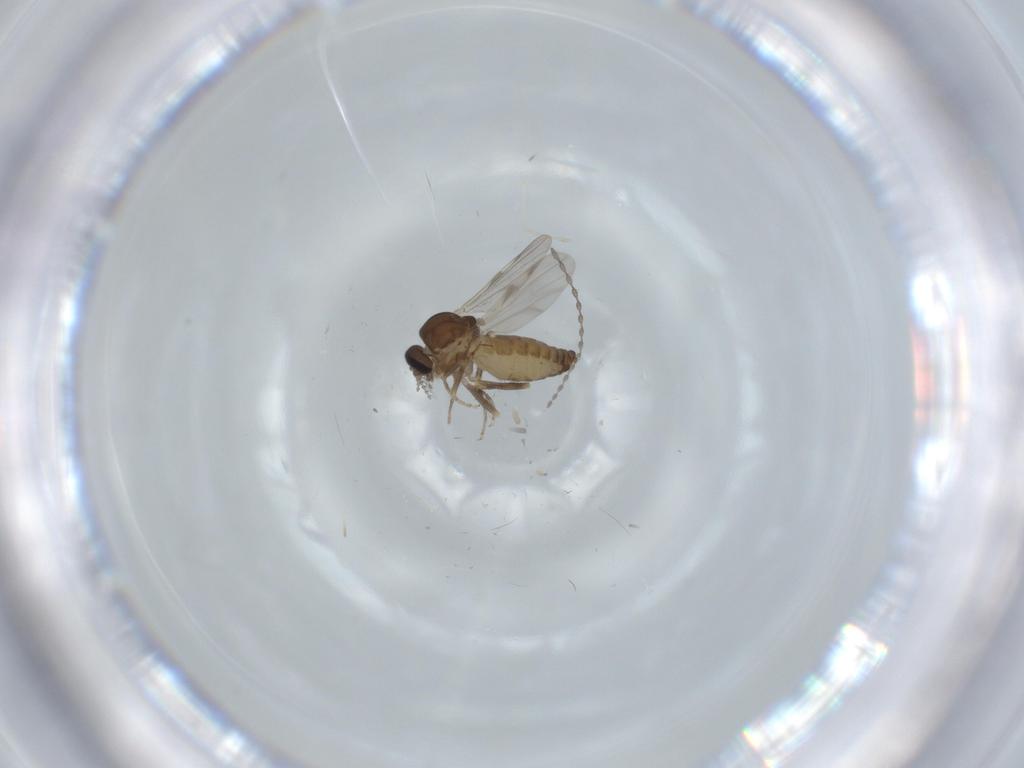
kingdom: Animalia
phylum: Arthropoda
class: Insecta
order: Diptera
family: Ceratopogonidae
